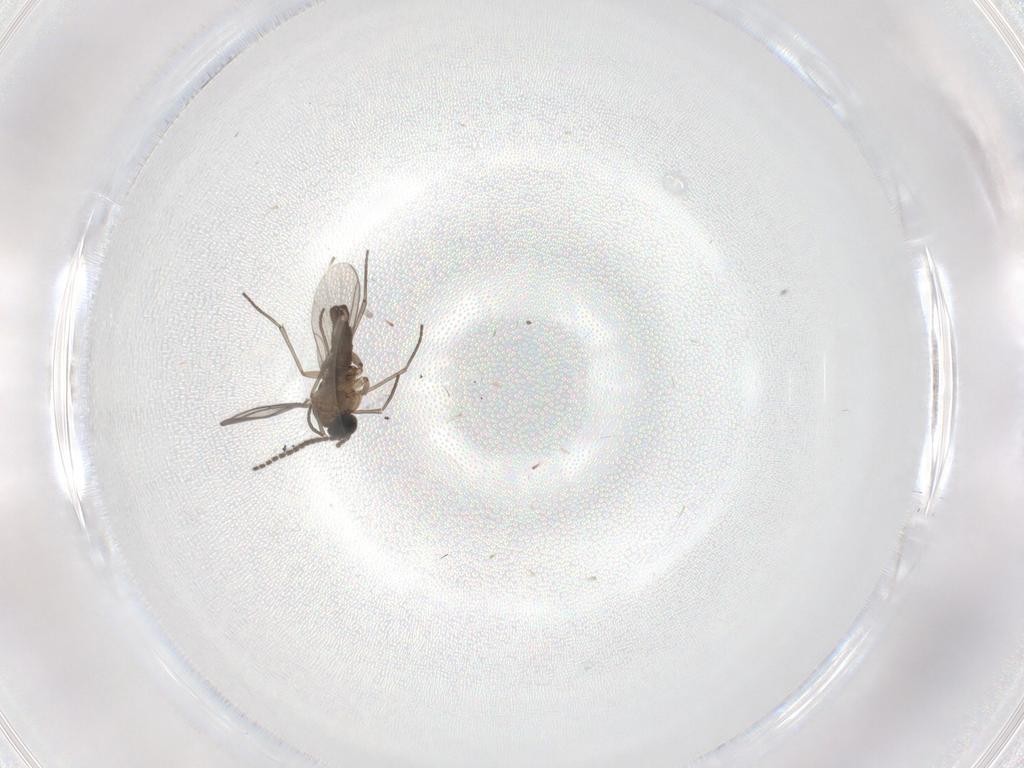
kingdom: Animalia
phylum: Arthropoda
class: Insecta
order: Diptera
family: Sciaridae
